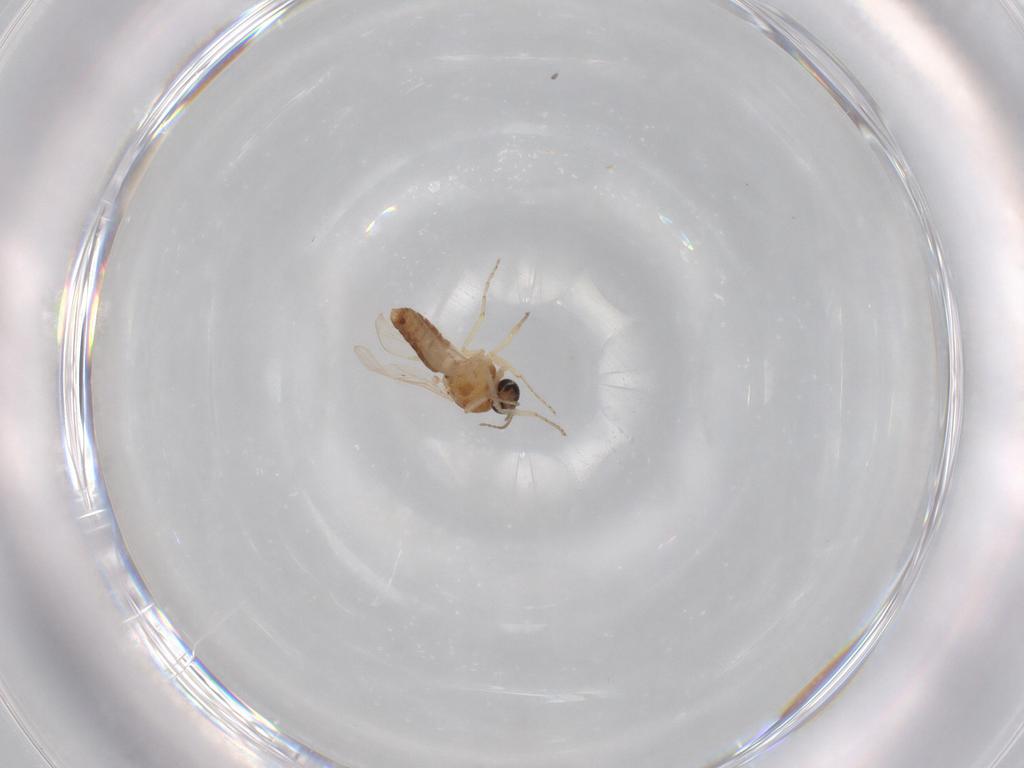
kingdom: Animalia
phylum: Arthropoda
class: Insecta
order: Diptera
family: Ceratopogonidae
